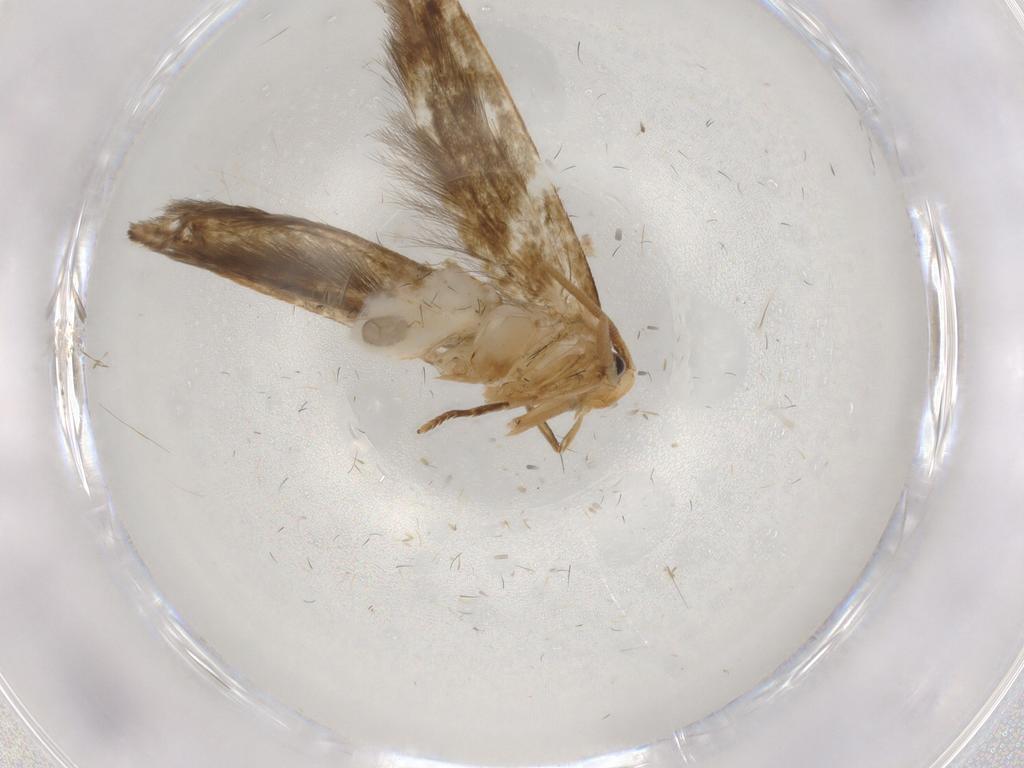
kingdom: Animalia
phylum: Arthropoda
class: Insecta
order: Lepidoptera
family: Tineidae
